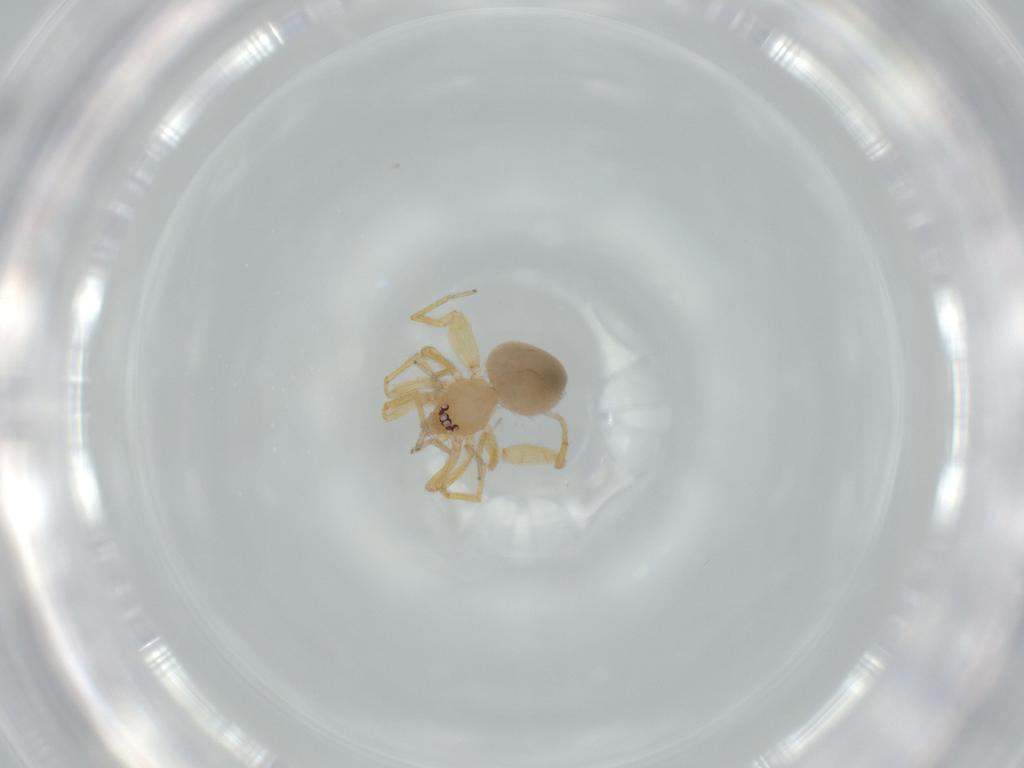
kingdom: Animalia
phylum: Arthropoda
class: Arachnida
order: Araneae
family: Oonopidae
